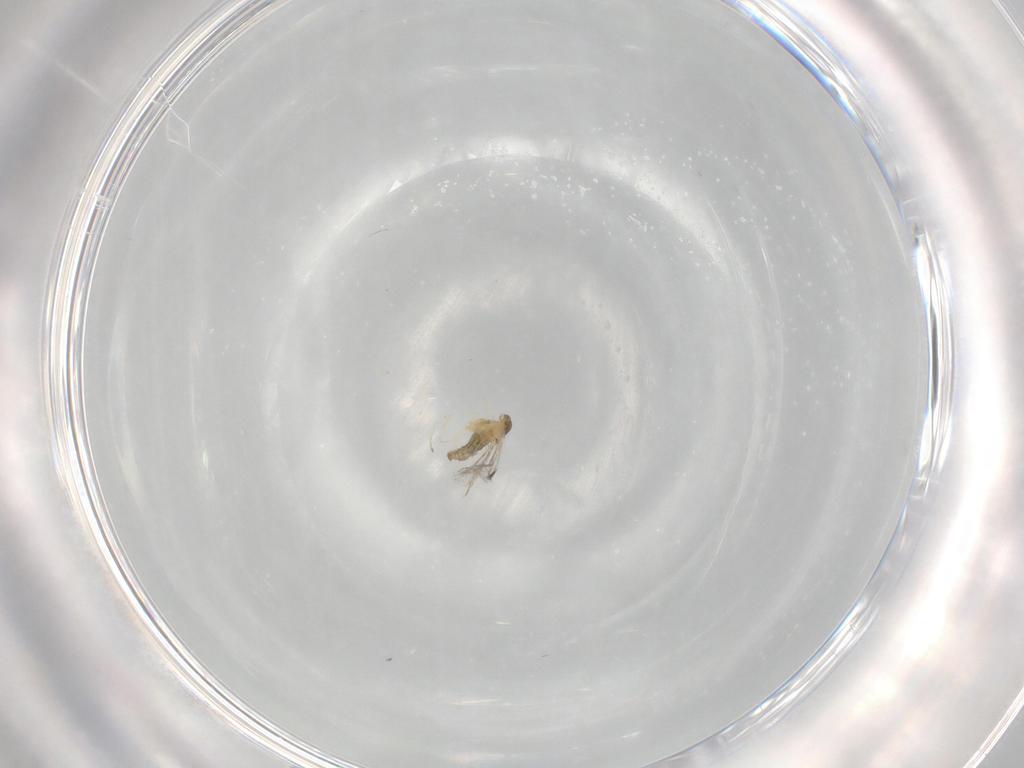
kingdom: Animalia
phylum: Arthropoda
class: Insecta
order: Diptera
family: Cecidomyiidae
